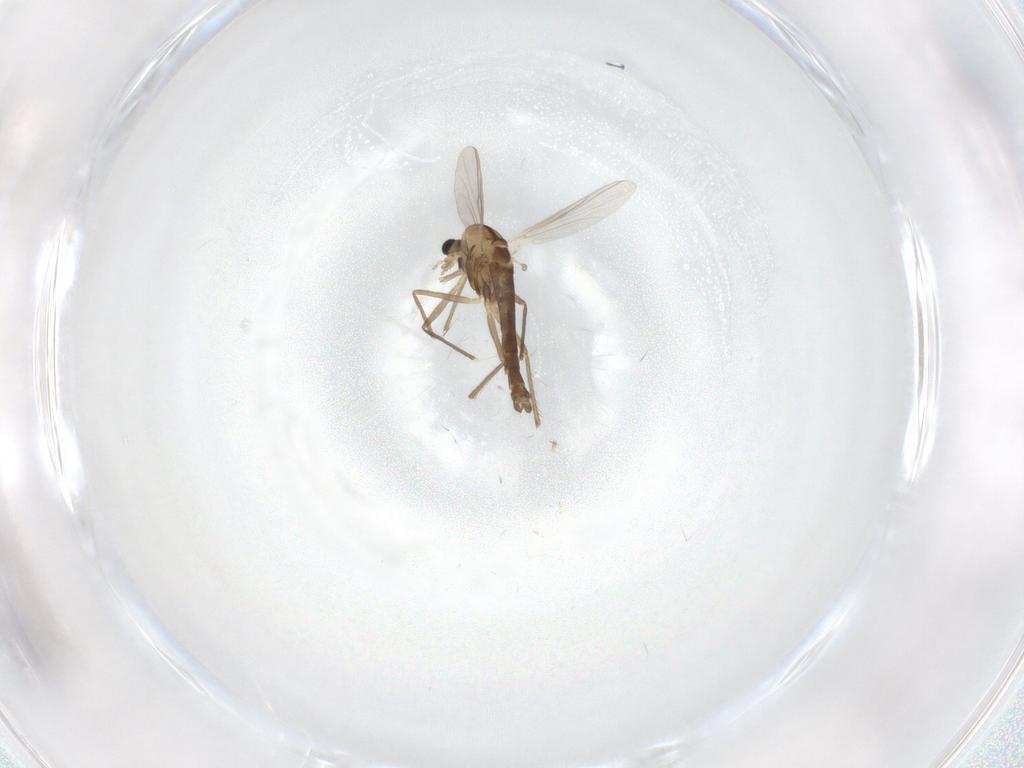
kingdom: Animalia
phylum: Arthropoda
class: Insecta
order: Diptera
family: Chironomidae
